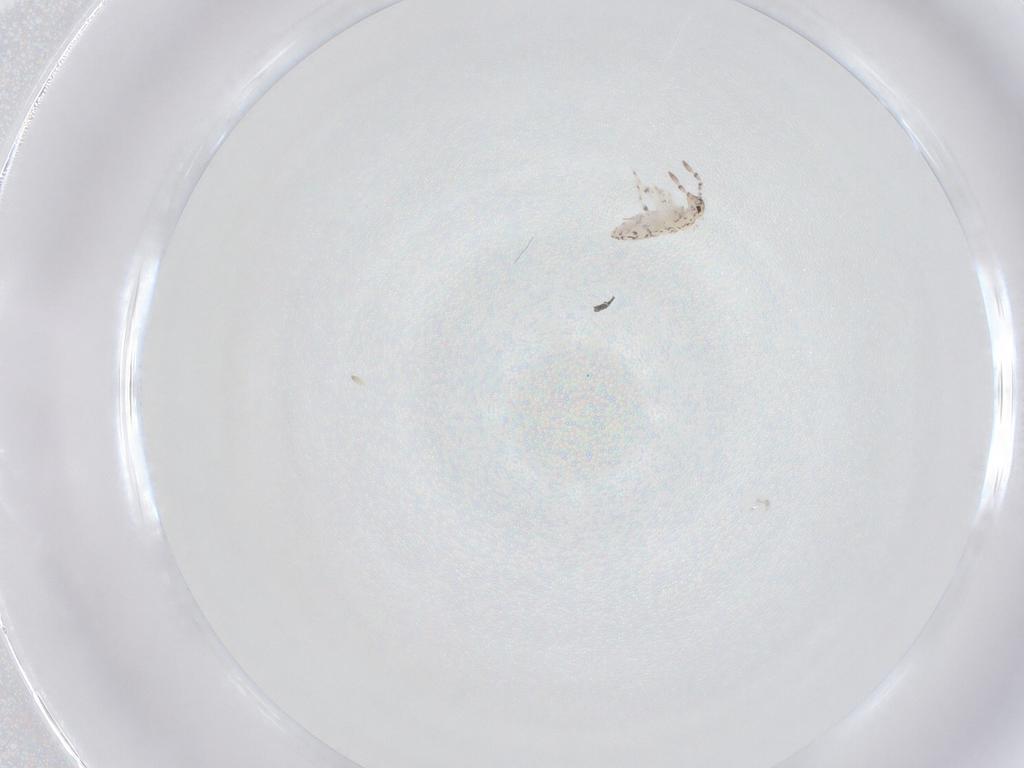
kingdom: Animalia
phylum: Arthropoda
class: Collembola
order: Entomobryomorpha
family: Entomobryidae
